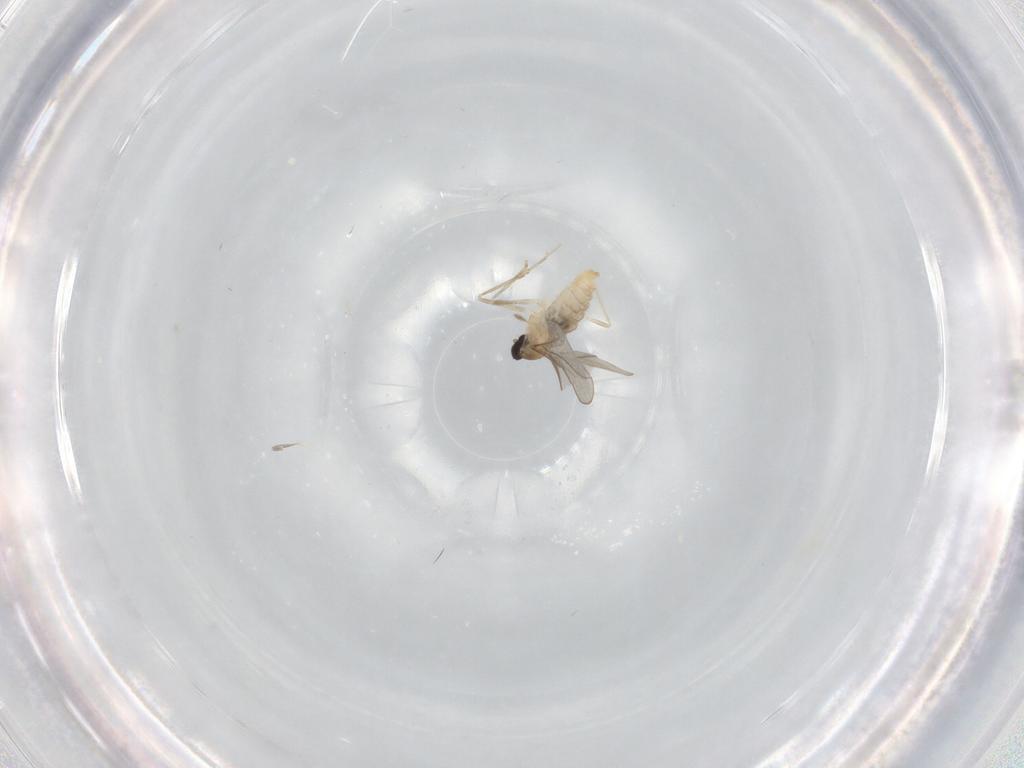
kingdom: Animalia
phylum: Arthropoda
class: Insecta
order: Diptera
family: Cecidomyiidae
